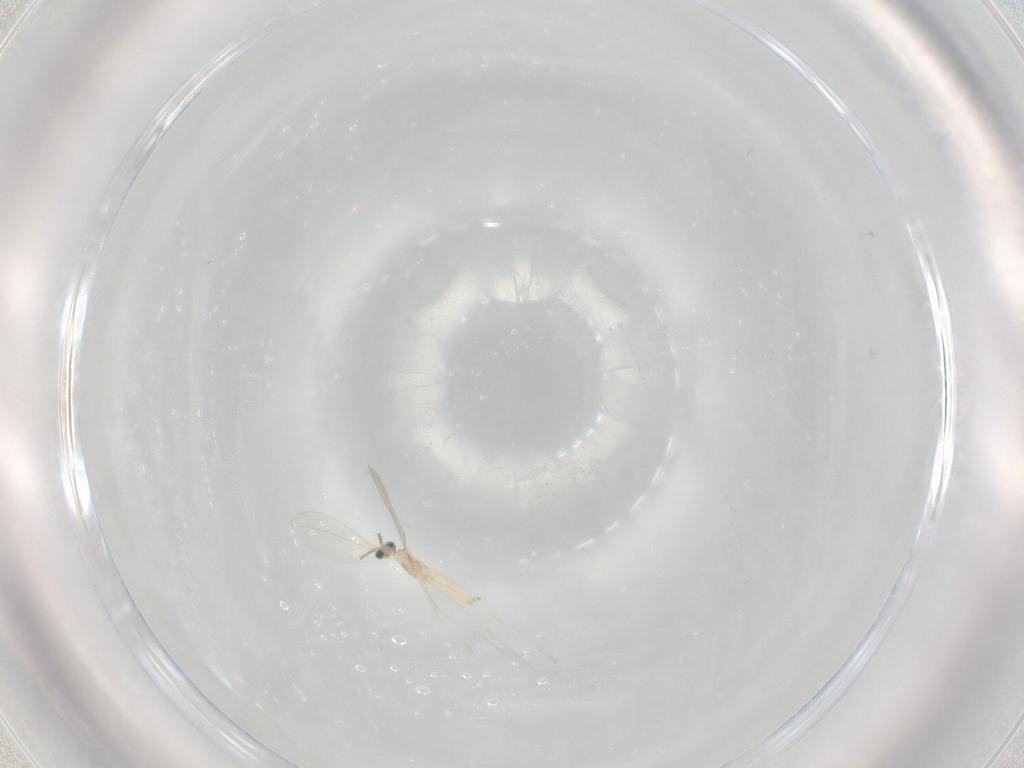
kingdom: Animalia
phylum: Arthropoda
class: Insecta
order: Diptera
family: Cecidomyiidae
